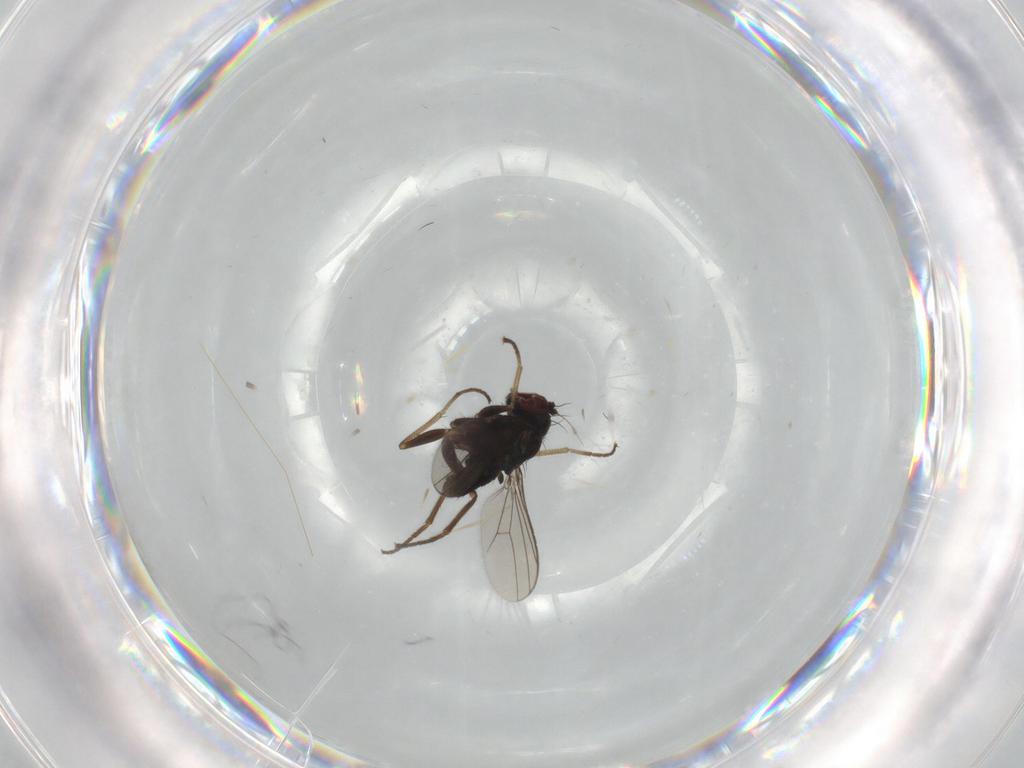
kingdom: Animalia
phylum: Arthropoda
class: Insecta
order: Diptera
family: Dolichopodidae
